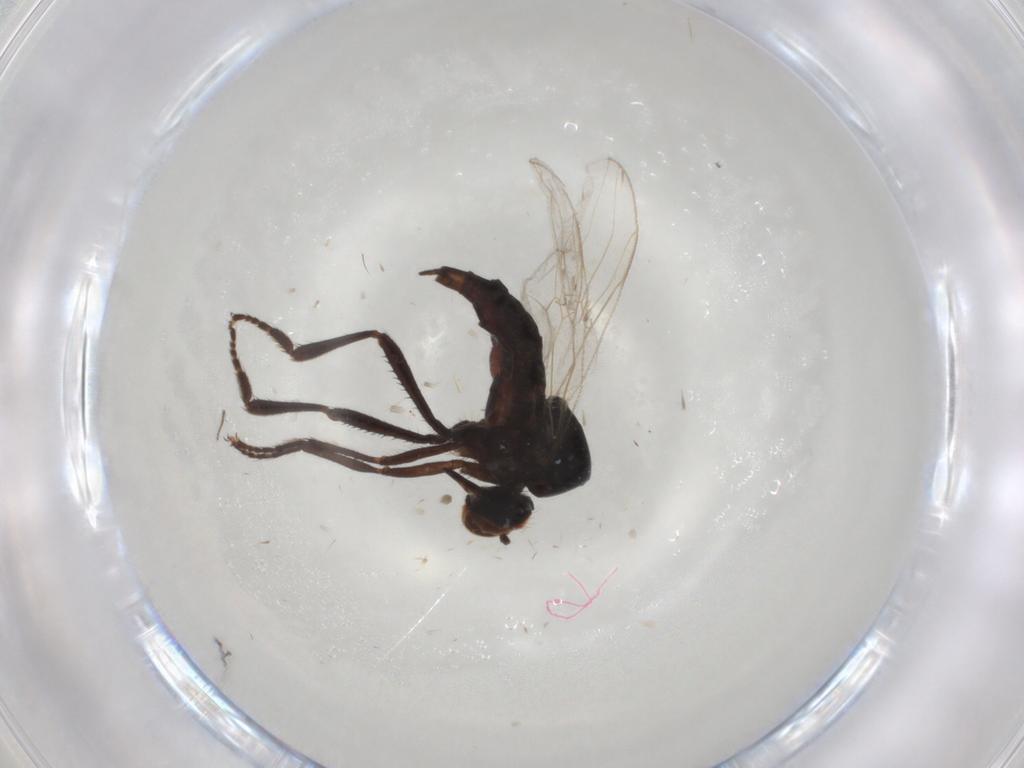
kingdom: Animalia
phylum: Arthropoda
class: Insecta
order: Diptera
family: Hybotidae
